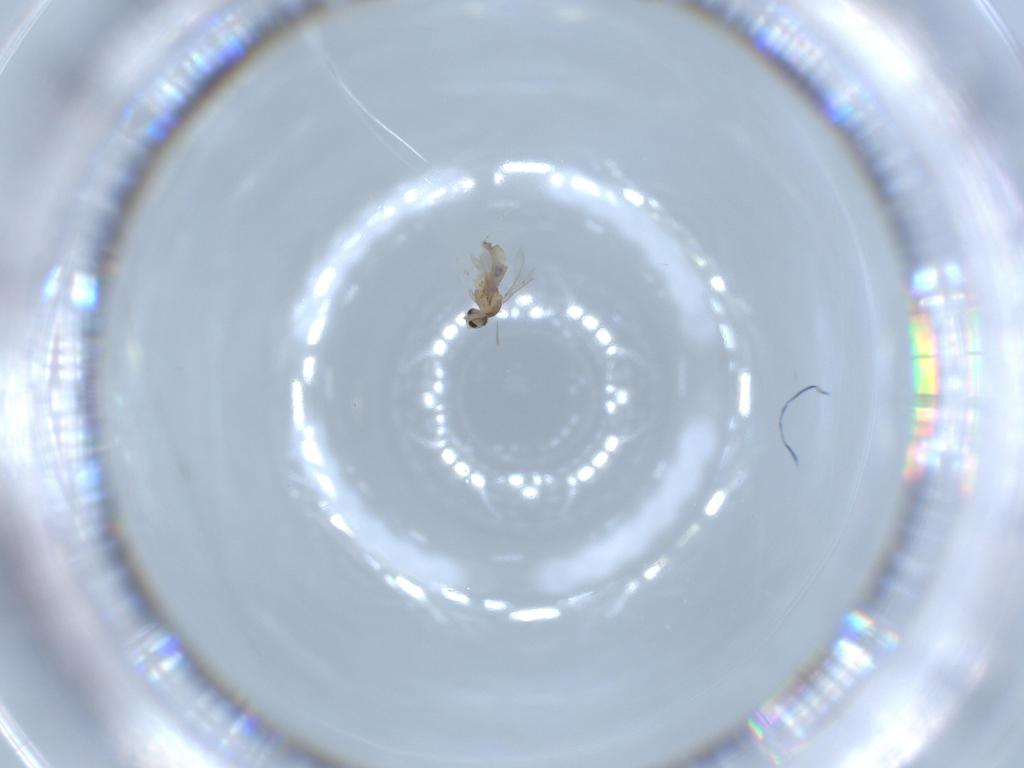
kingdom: Animalia
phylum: Arthropoda
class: Insecta
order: Diptera
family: Cecidomyiidae
